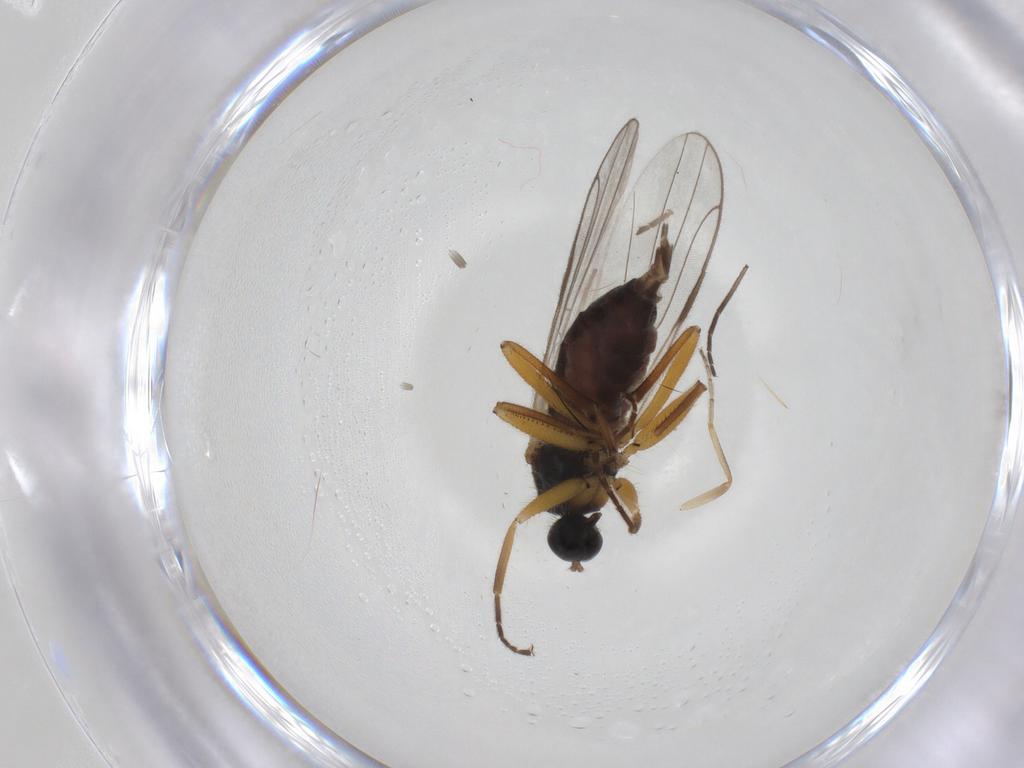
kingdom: Animalia
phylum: Arthropoda
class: Insecta
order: Diptera
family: Hybotidae
